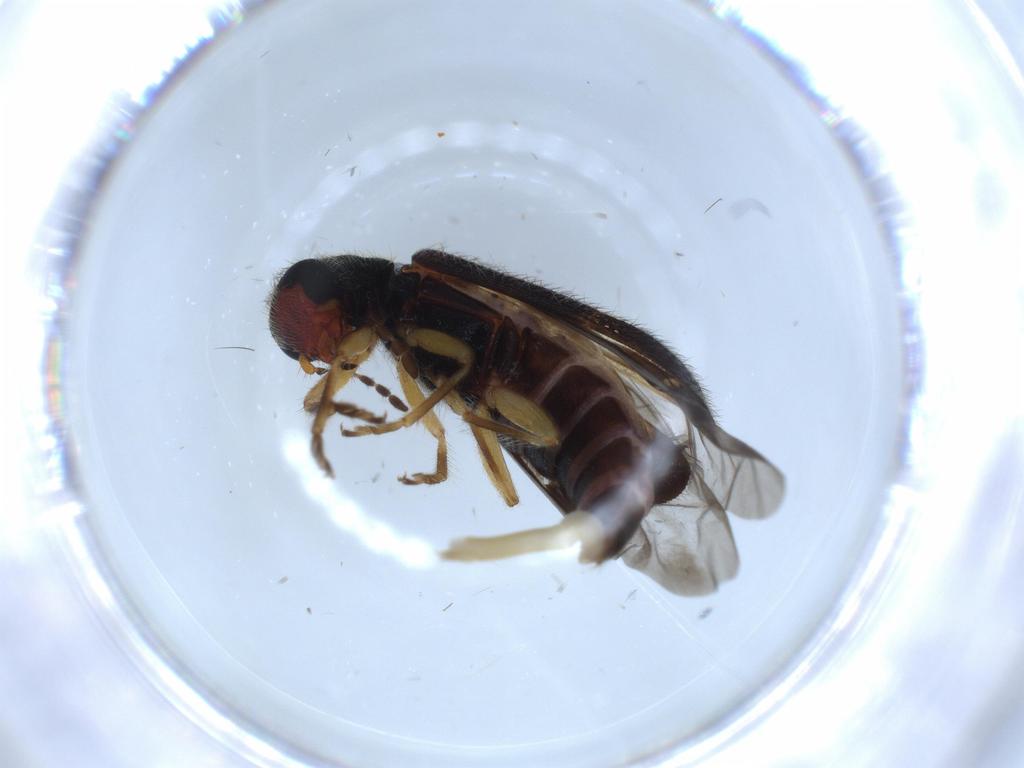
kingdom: Animalia
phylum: Arthropoda
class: Insecta
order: Coleoptera
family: Cleridae
